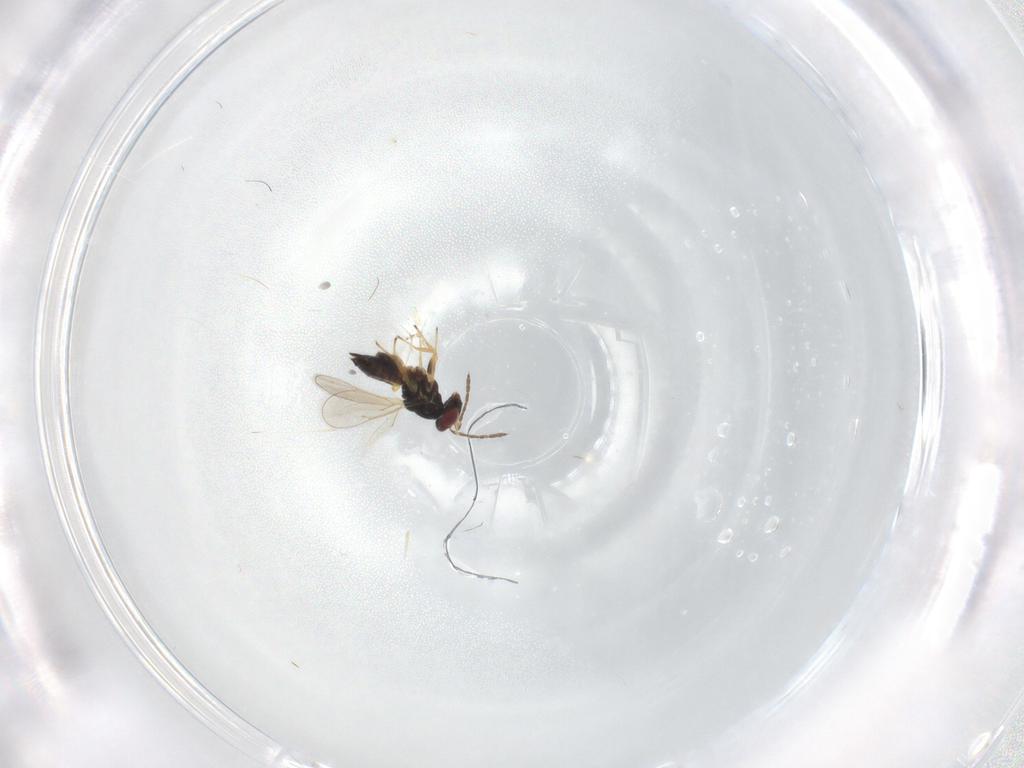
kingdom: Animalia
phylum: Arthropoda
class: Insecta
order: Hymenoptera
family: Eulophidae
